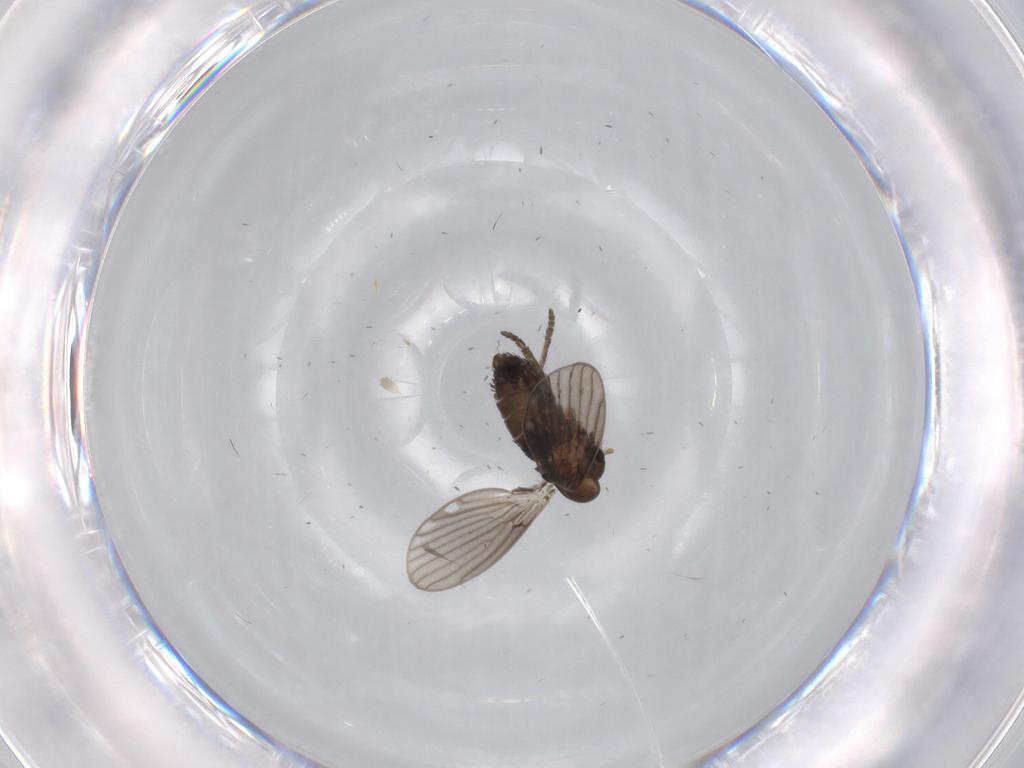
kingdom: Animalia
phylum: Arthropoda
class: Insecta
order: Diptera
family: Psychodidae
